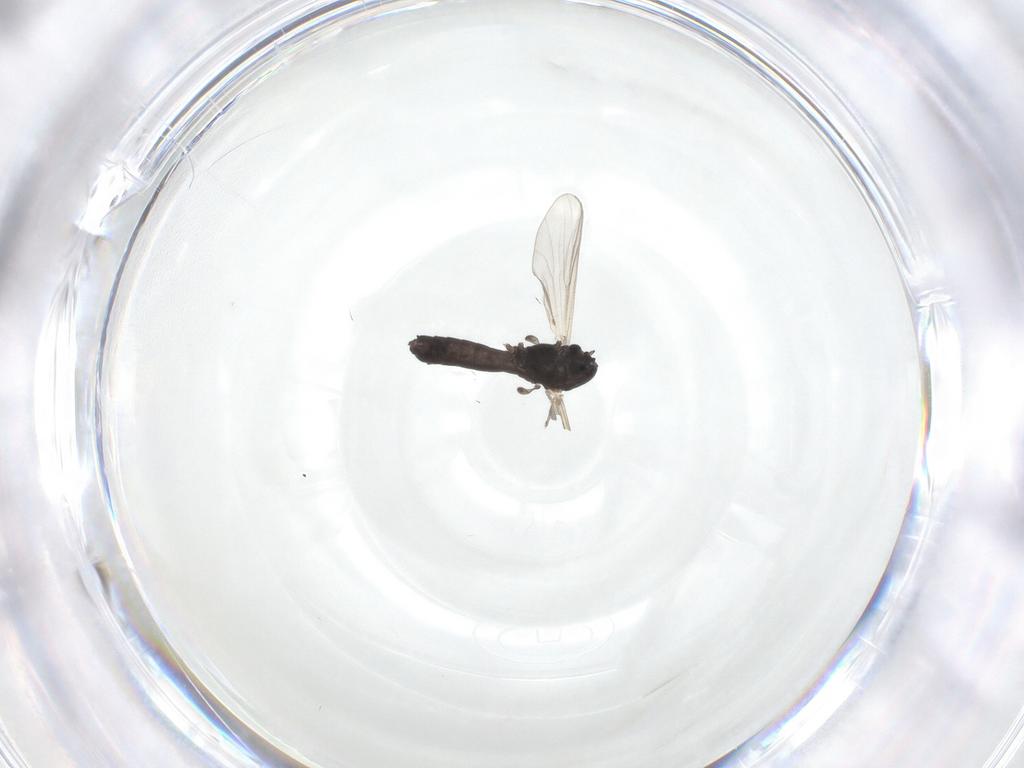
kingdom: Animalia
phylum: Arthropoda
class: Insecta
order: Diptera
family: Chironomidae
